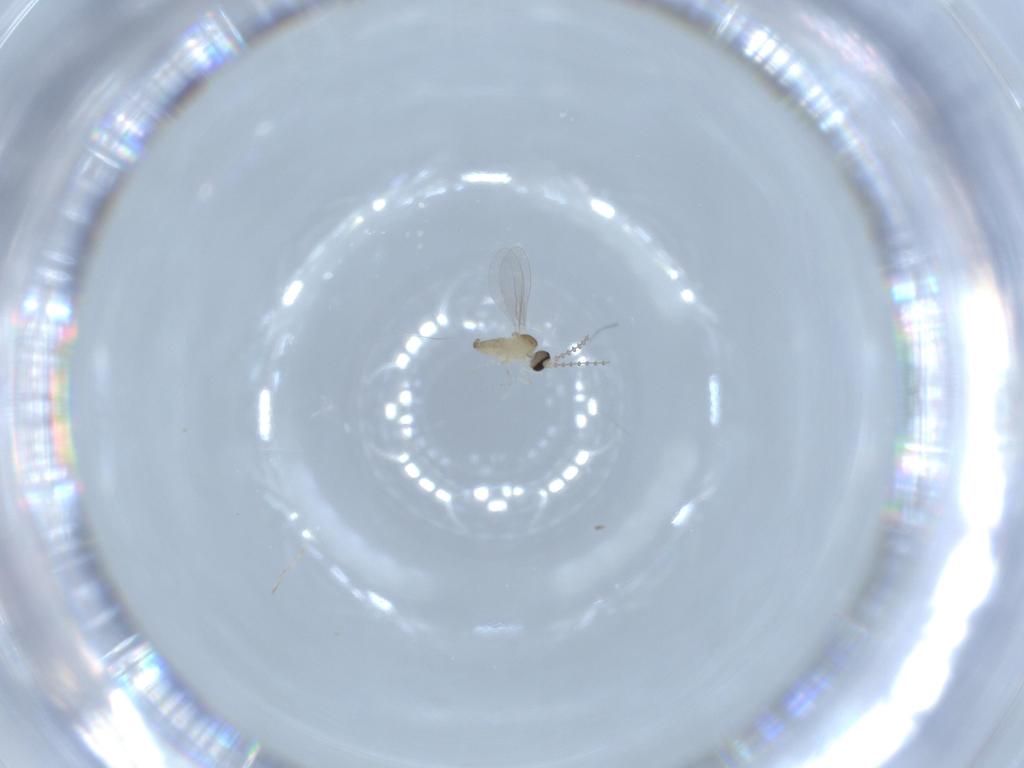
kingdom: Animalia
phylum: Arthropoda
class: Insecta
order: Diptera
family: Cecidomyiidae
